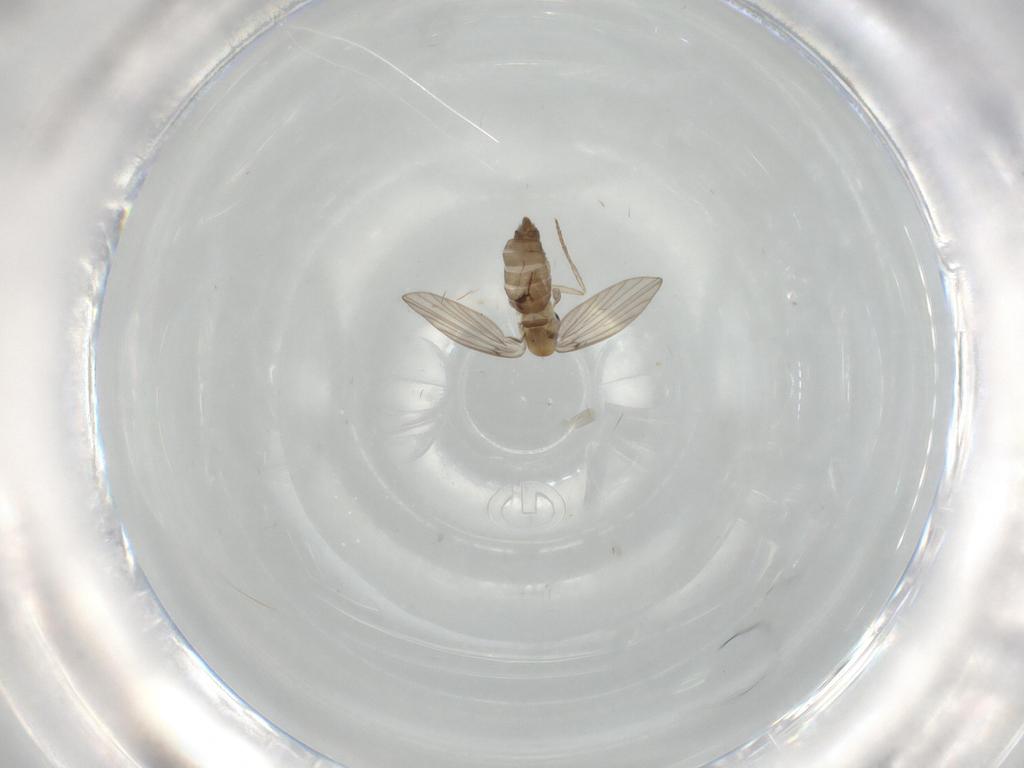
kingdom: Animalia
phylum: Arthropoda
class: Insecta
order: Diptera
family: Psychodidae
